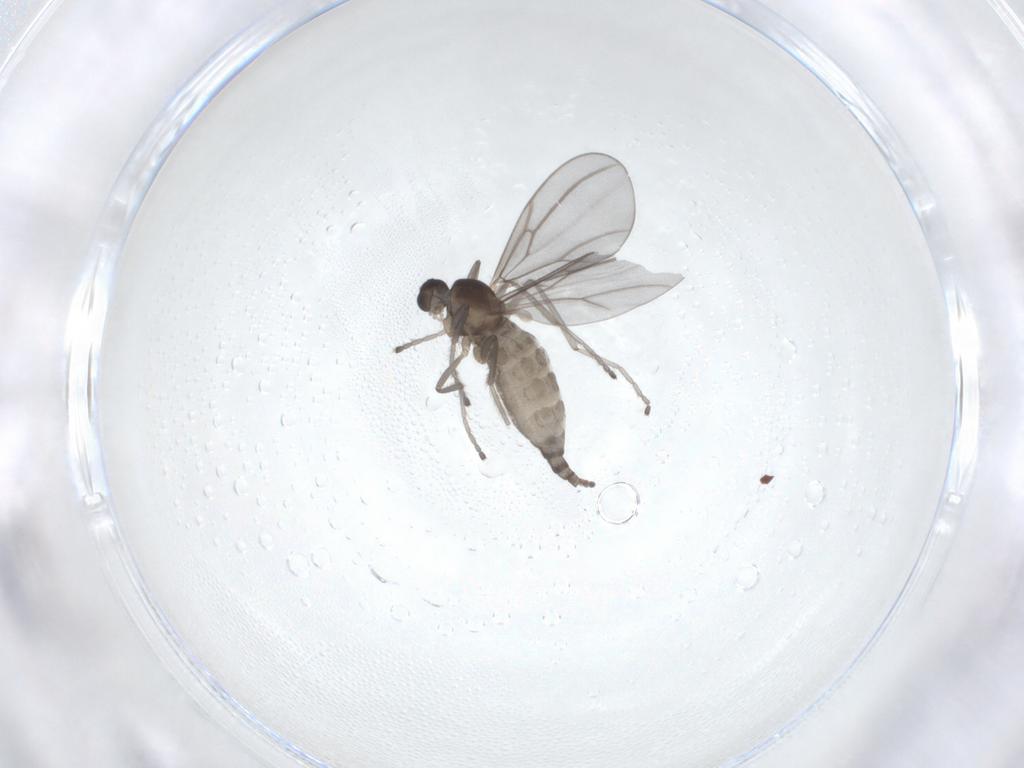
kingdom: Animalia
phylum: Arthropoda
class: Insecta
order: Diptera
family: Cecidomyiidae
